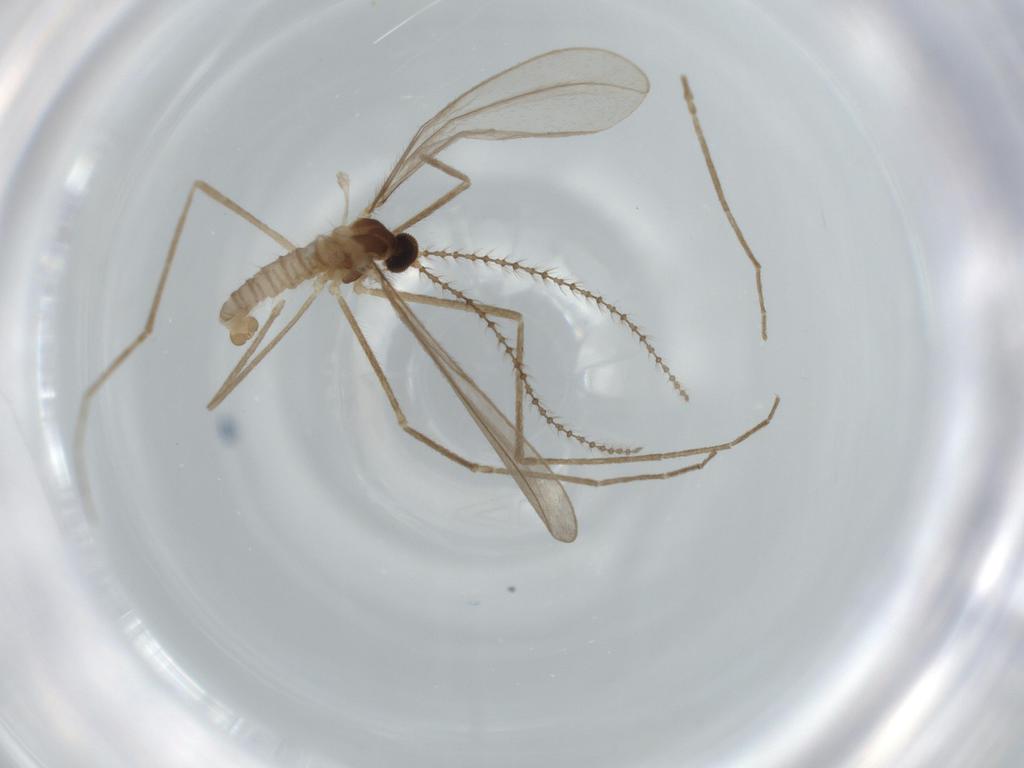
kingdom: Animalia
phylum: Arthropoda
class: Insecta
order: Diptera
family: Cecidomyiidae
